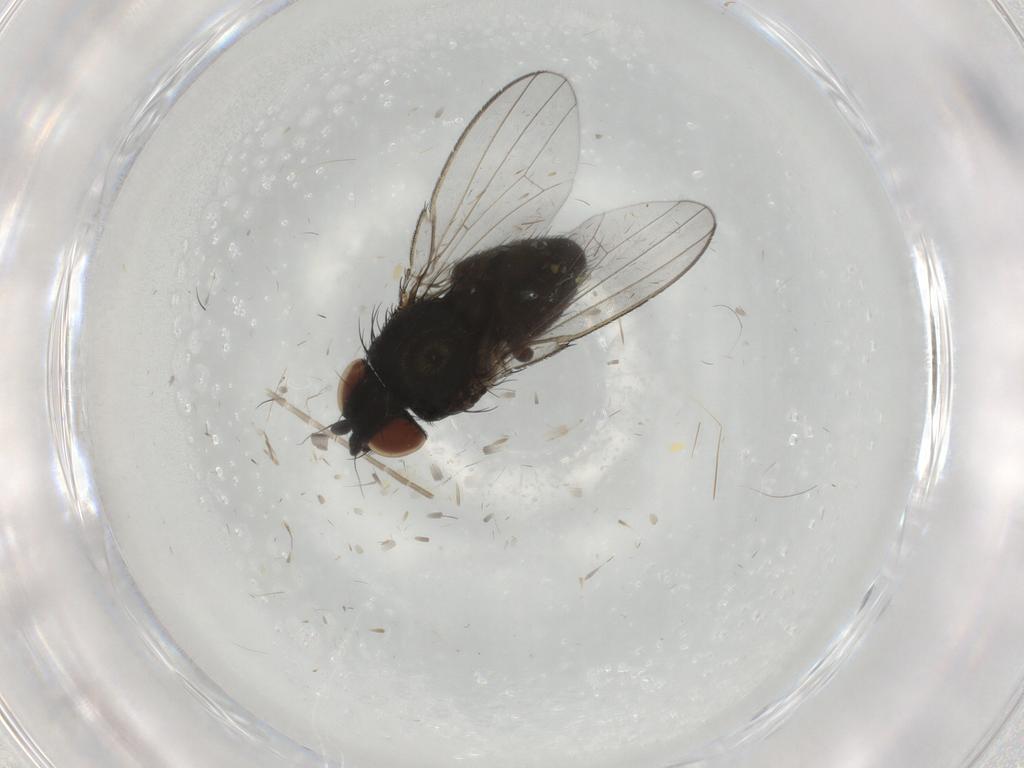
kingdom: Animalia
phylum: Arthropoda
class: Insecta
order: Diptera
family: Milichiidae
